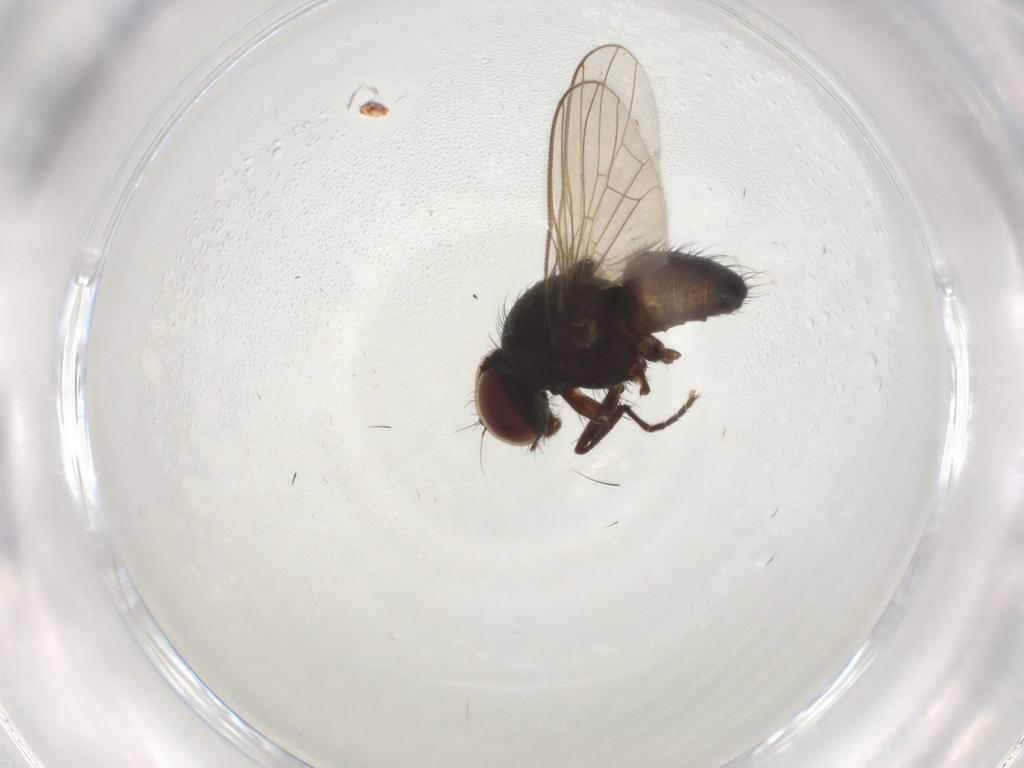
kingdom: Animalia
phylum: Arthropoda
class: Insecta
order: Diptera
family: Muscidae
